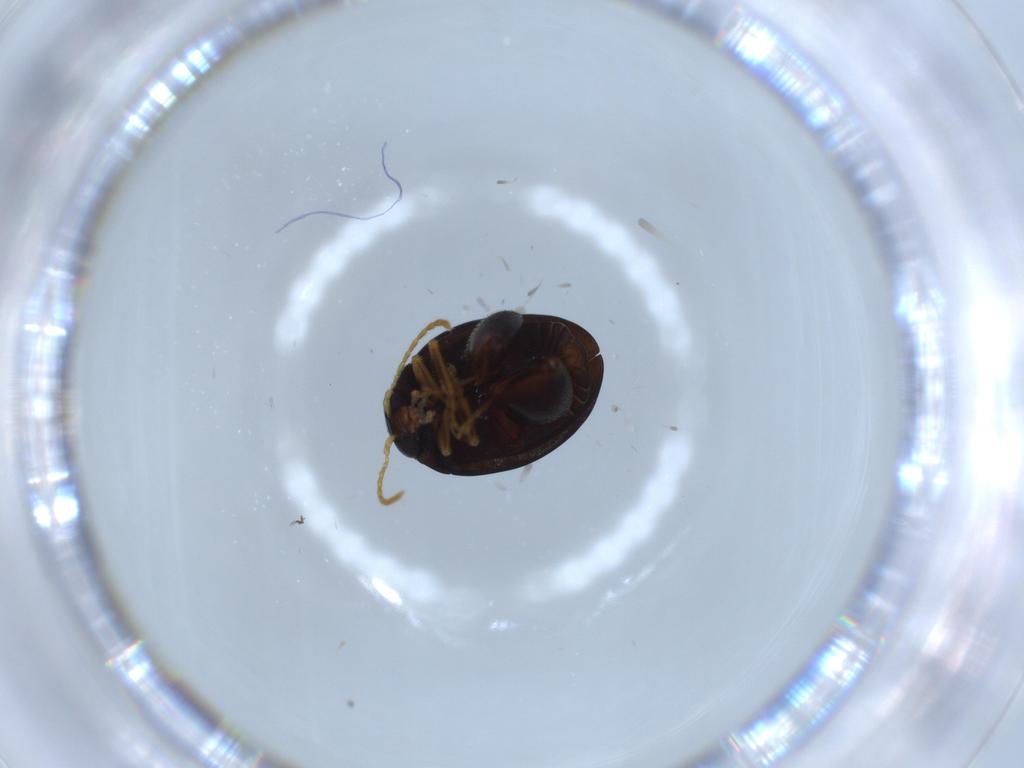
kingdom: Animalia
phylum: Arthropoda
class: Insecta
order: Coleoptera
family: Chrysomelidae
